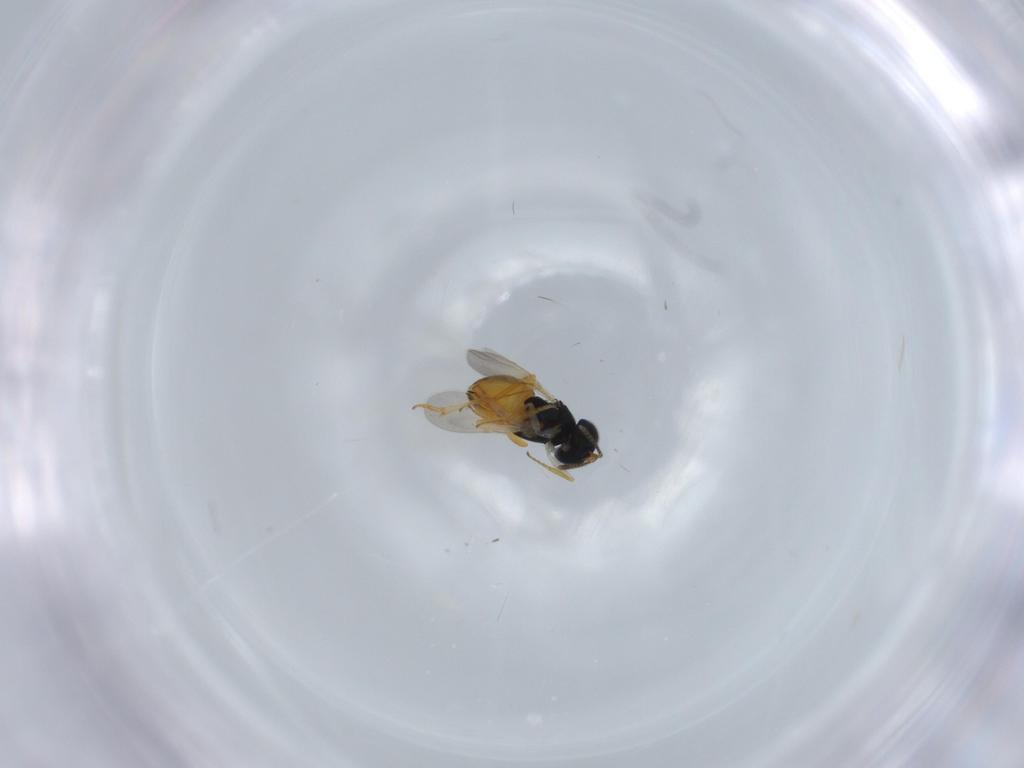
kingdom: Animalia
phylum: Arthropoda
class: Insecta
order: Hymenoptera
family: Encyrtidae
